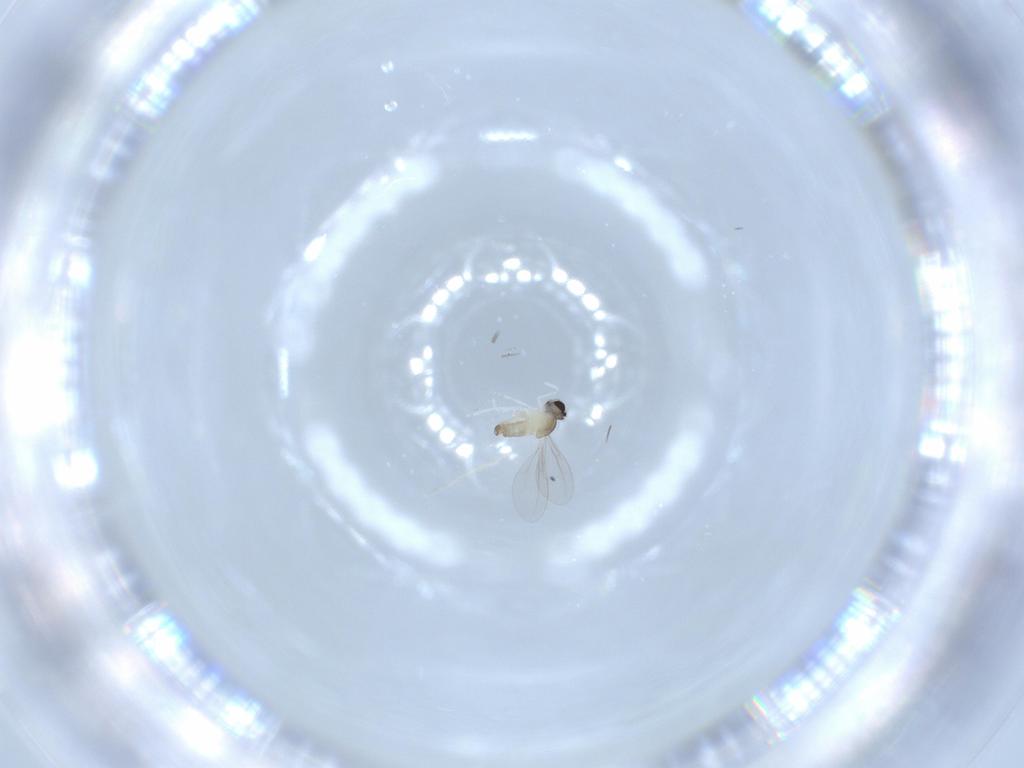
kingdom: Animalia
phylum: Arthropoda
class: Insecta
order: Diptera
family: Cecidomyiidae
